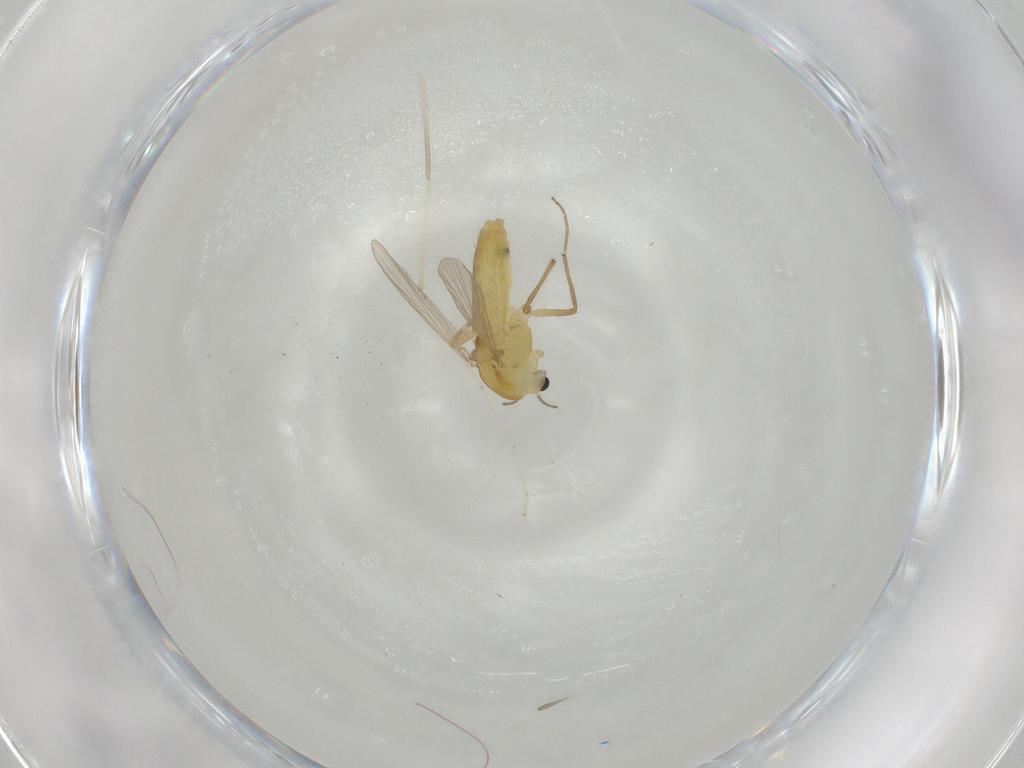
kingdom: Animalia
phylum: Arthropoda
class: Insecta
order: Diptera
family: Chironomidae
